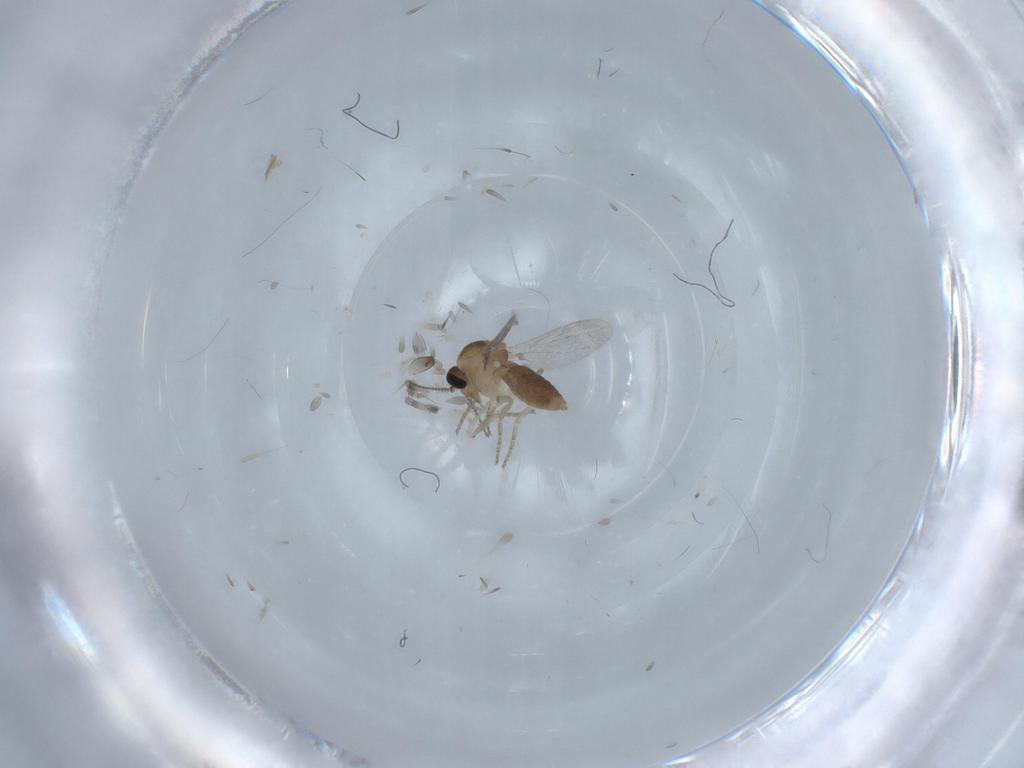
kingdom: Animalia
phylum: Arthropoda
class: Insecta
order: Diptera
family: Ceratopogonidae
